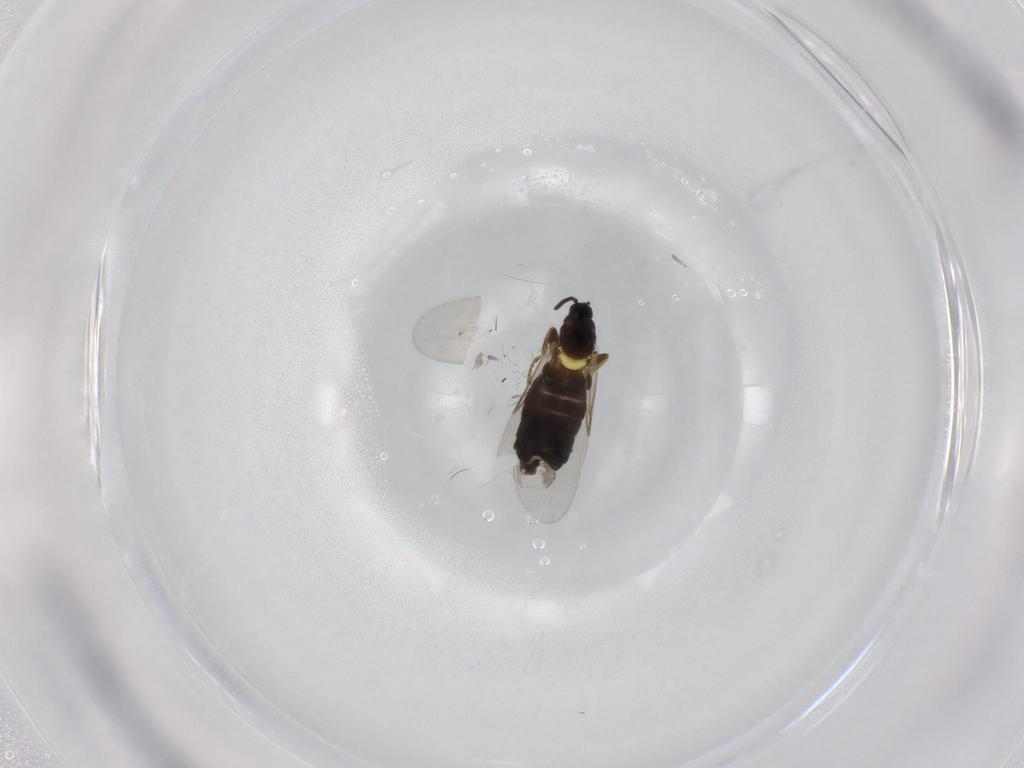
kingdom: Animalia
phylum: Arthropoda
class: Insecta
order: Diptera
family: Scatopsidae
